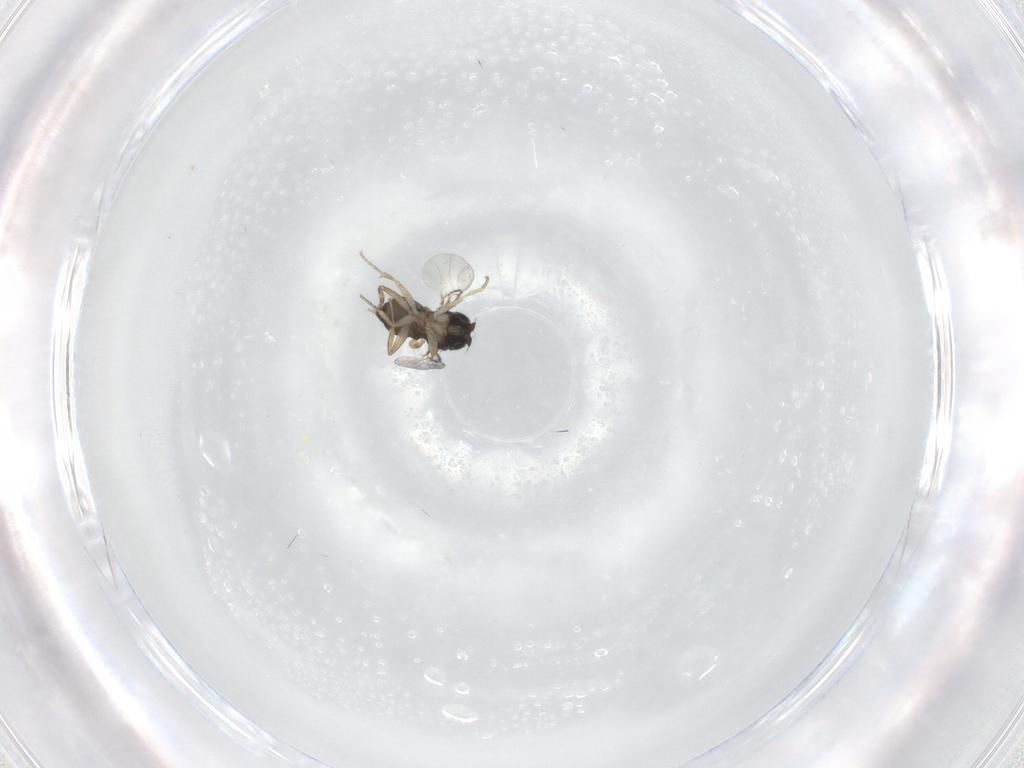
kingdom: Animalia
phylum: Arthropoda
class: Insecta
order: Diptera
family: Phoridae
